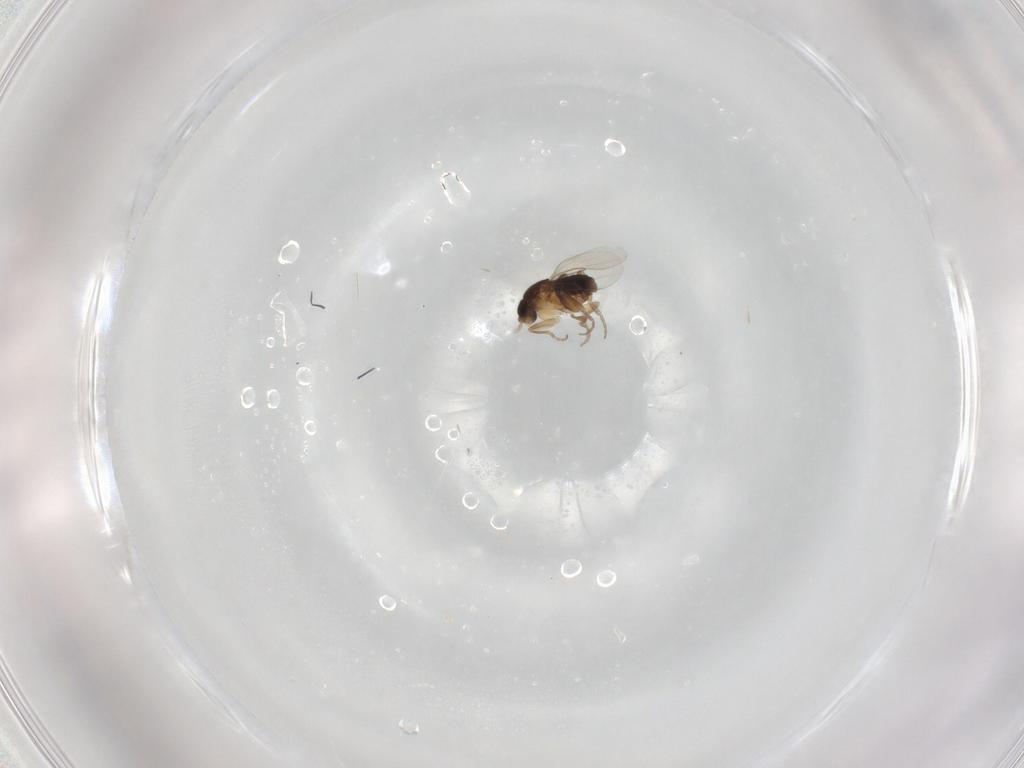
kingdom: Animalia
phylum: Arthropoda
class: Insecta
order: Diptera
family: Phoridae
